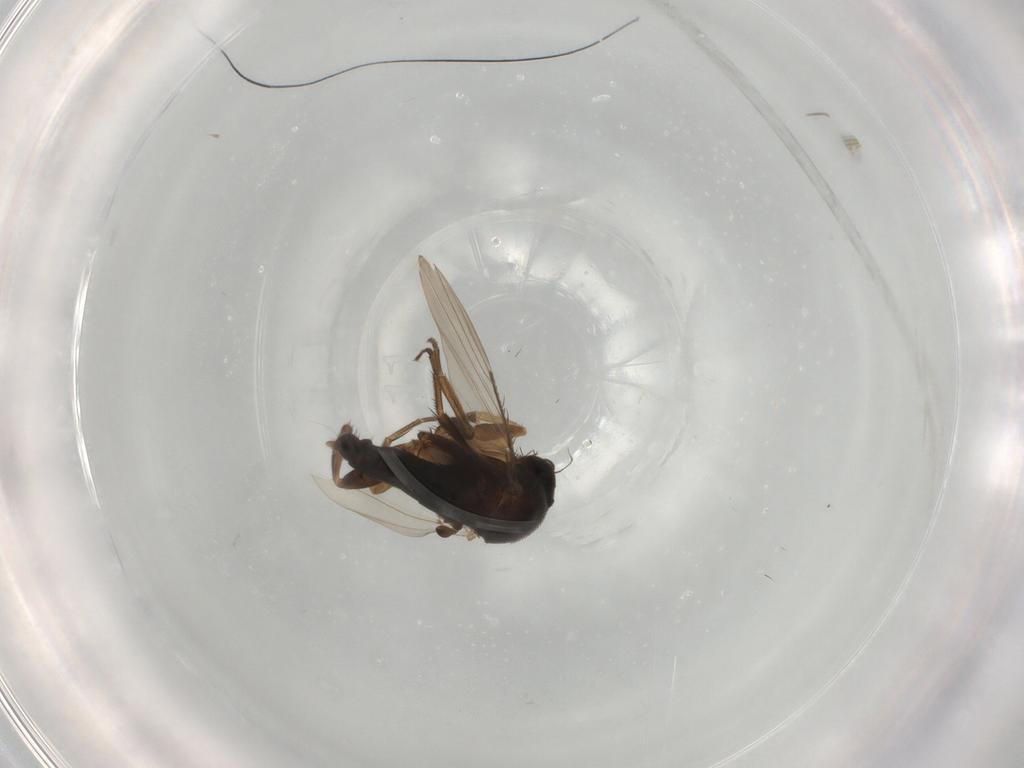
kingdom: Animalia
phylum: Arthropoda
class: Insecta
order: Diptera
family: Phoridae
